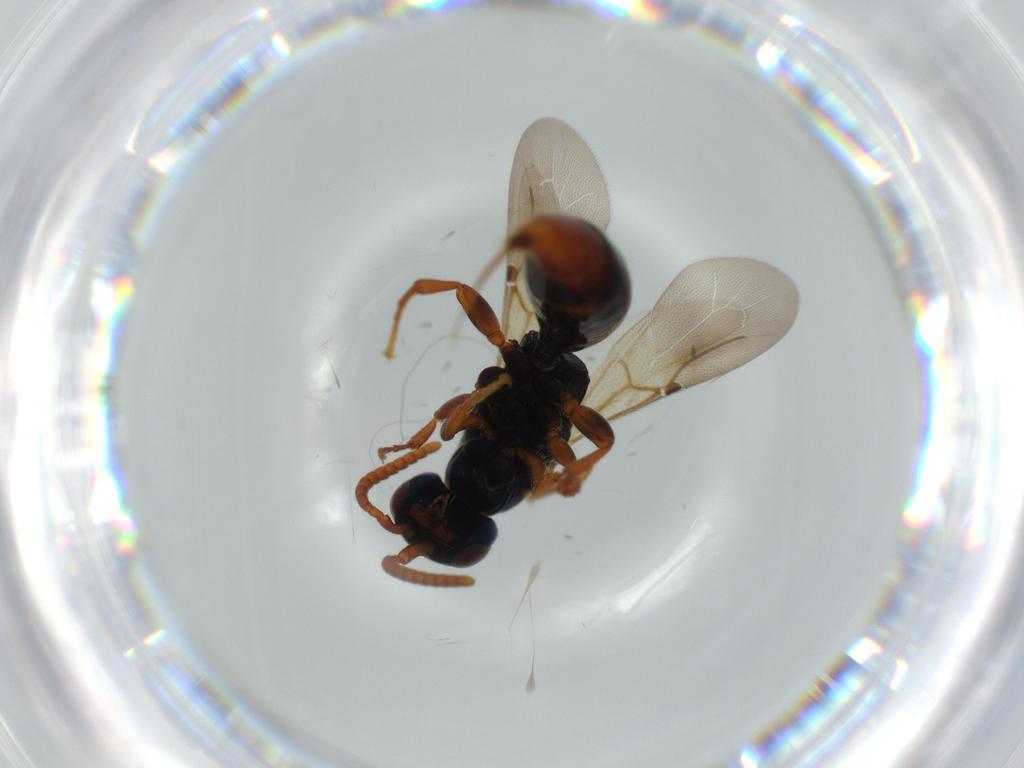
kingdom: Animalia
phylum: Arthropoda
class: Insecta
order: Hymenoptera
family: Bethylidae
